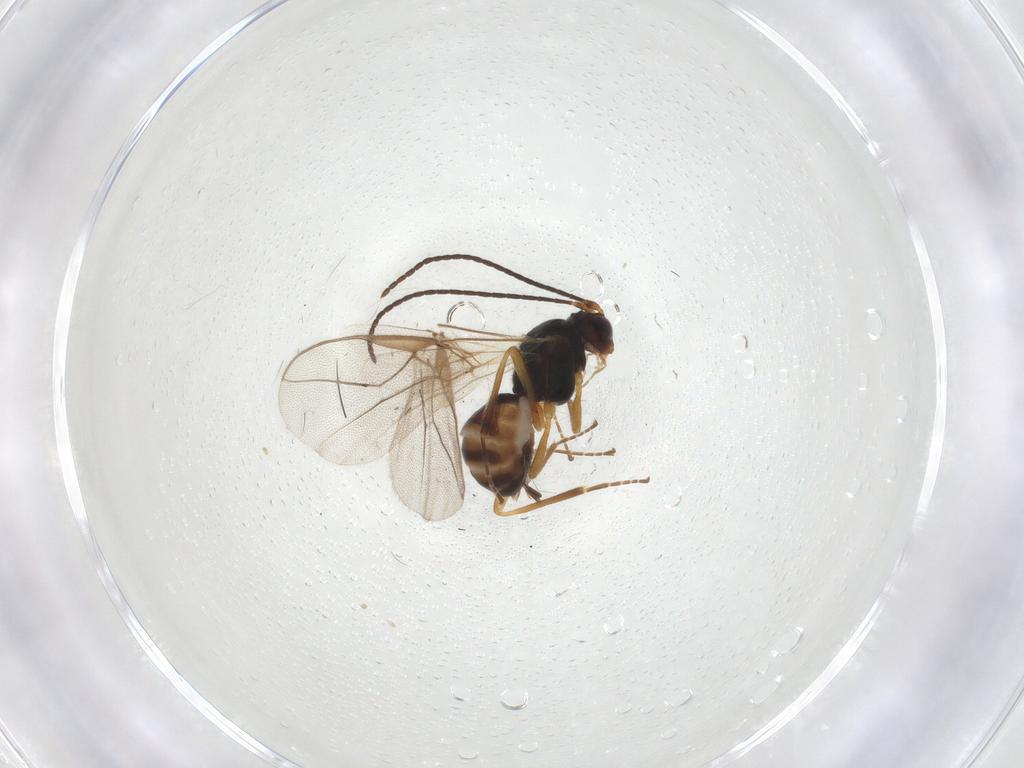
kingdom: Animalia
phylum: Arthropoda
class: Insecta
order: Hymenoptera
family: Braconidae
